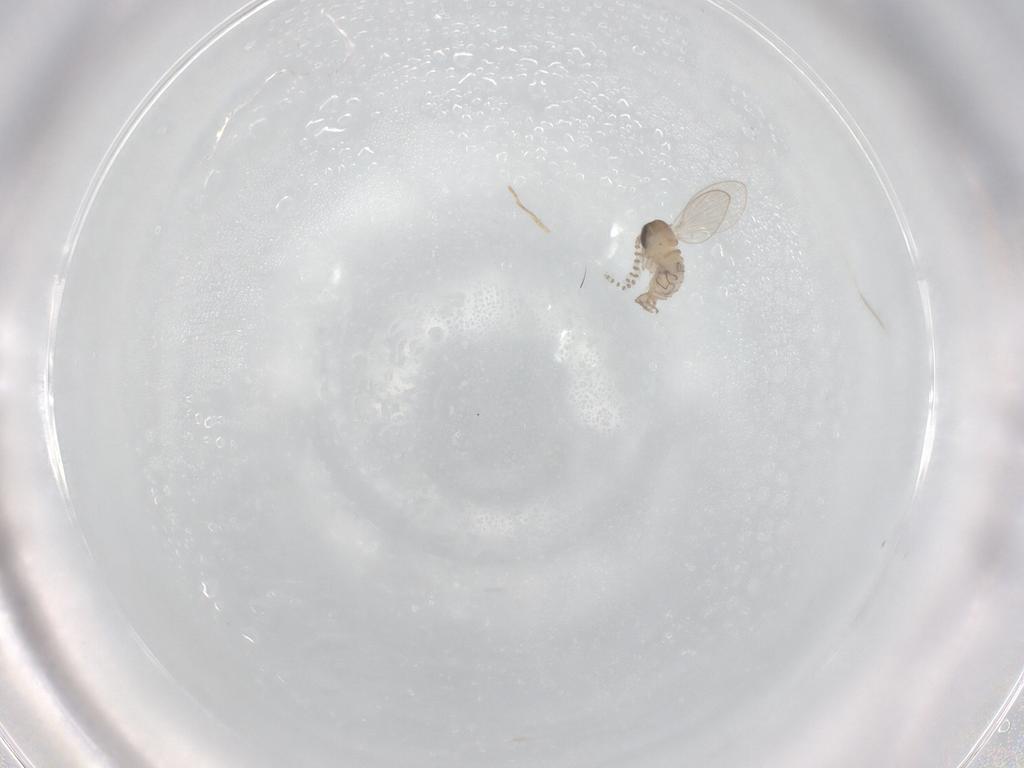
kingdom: Animalia
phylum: Arthropoda
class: Insecta
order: Diptera
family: Psychodidae
